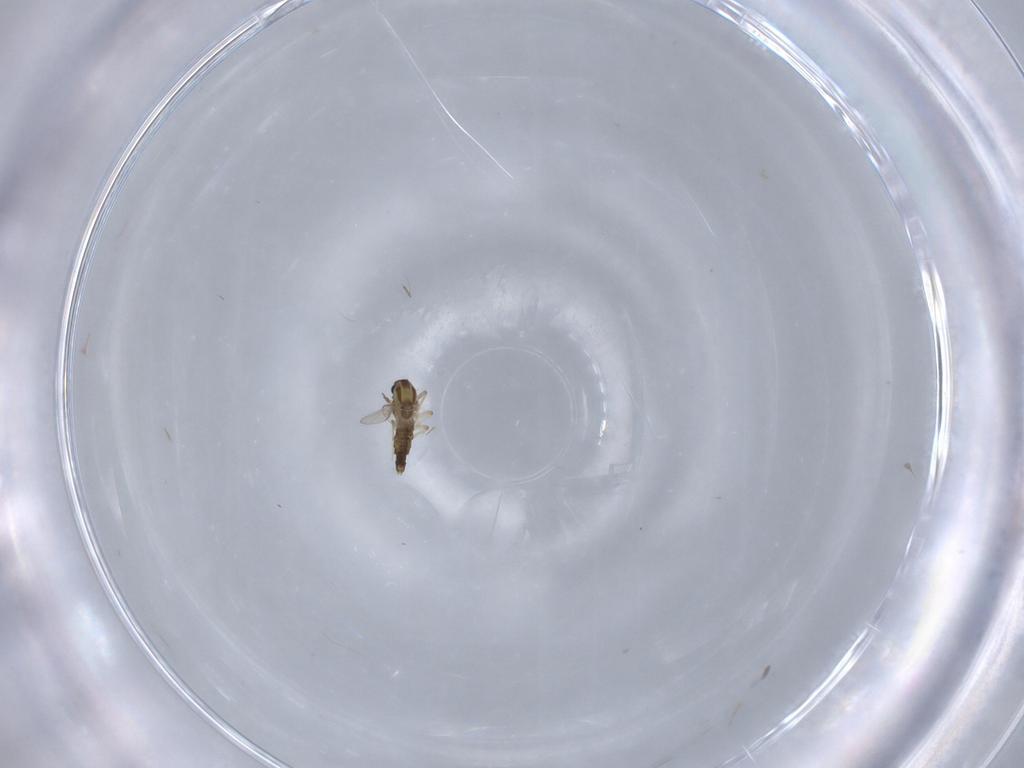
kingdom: Animalia
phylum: Arthropoda
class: Insecta
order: Diptera
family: Chironomidae
